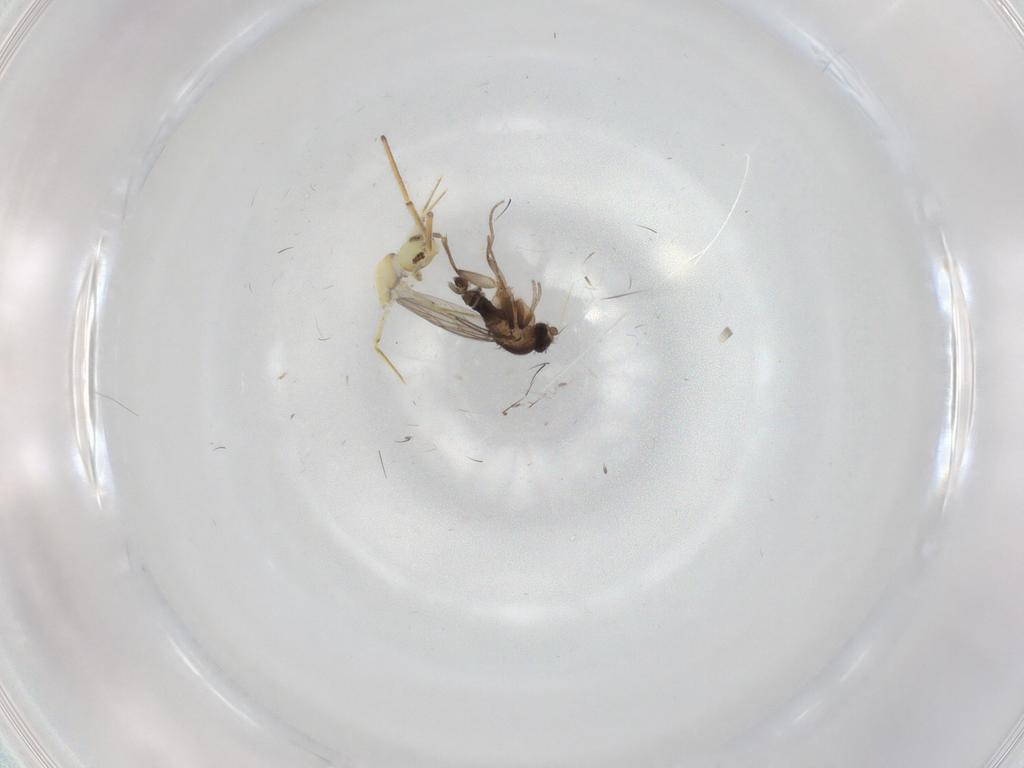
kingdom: Animalia
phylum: Arthropoda
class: Insecta
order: Diptera
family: Phoridae
